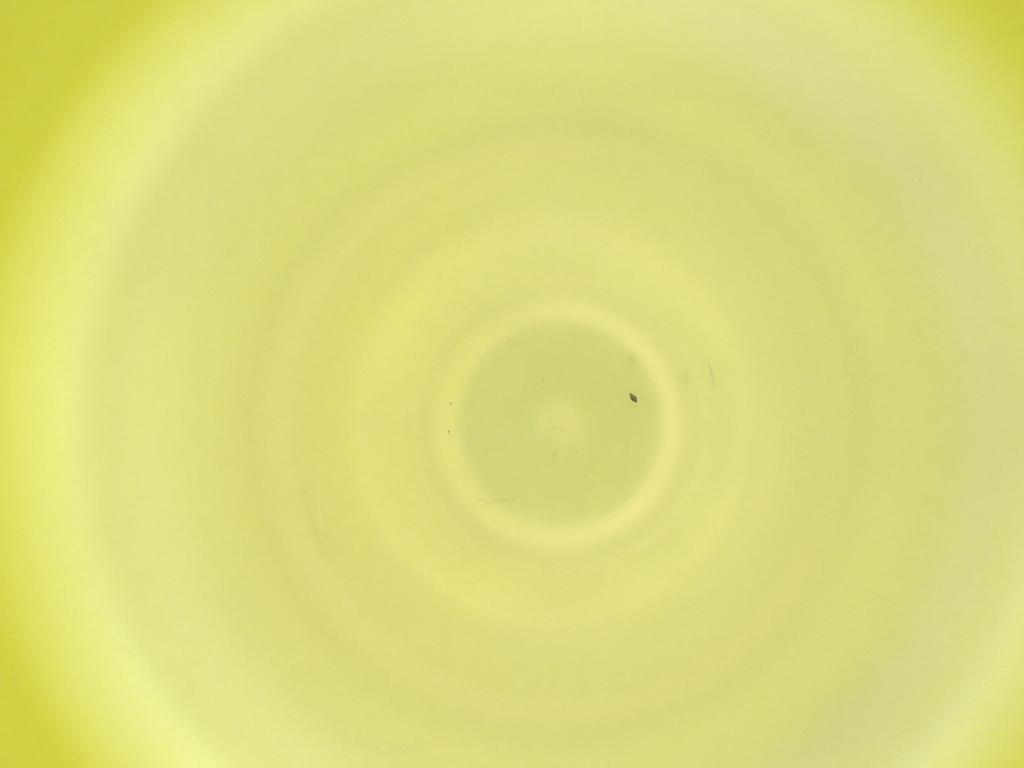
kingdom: Animalia
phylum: Arthropoda
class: Insecta
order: Diptera
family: Cecidomyiidae
